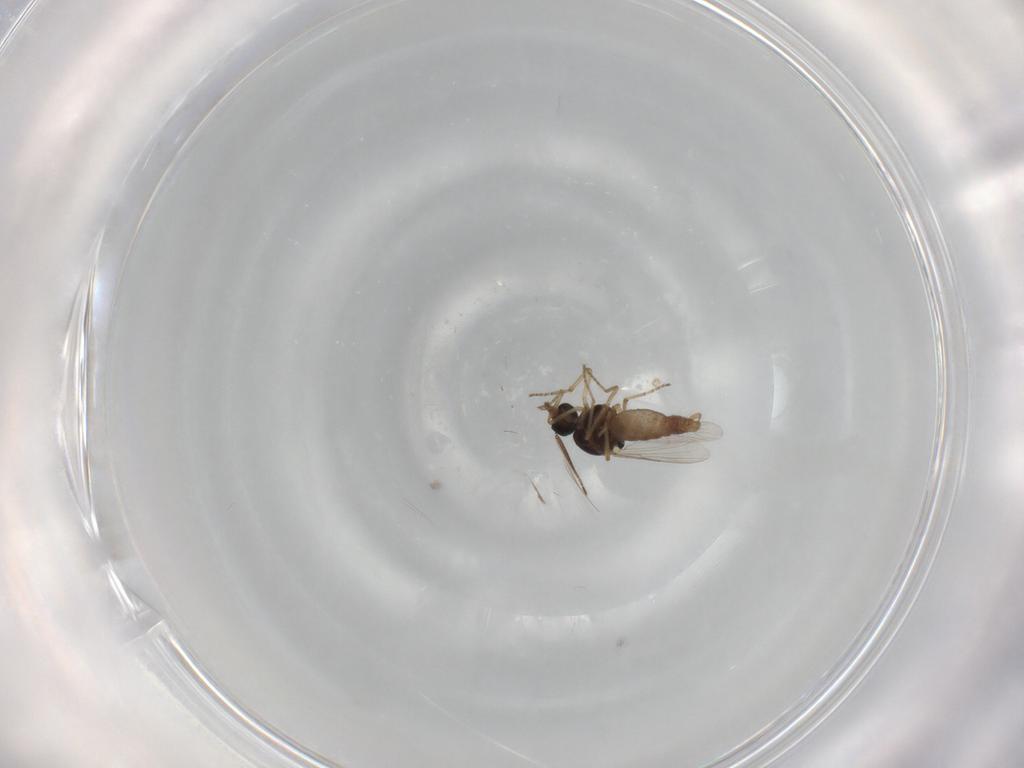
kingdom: Animalia
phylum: Arthropoda
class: Insecta
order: Diptera
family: Ceratopogonidae
